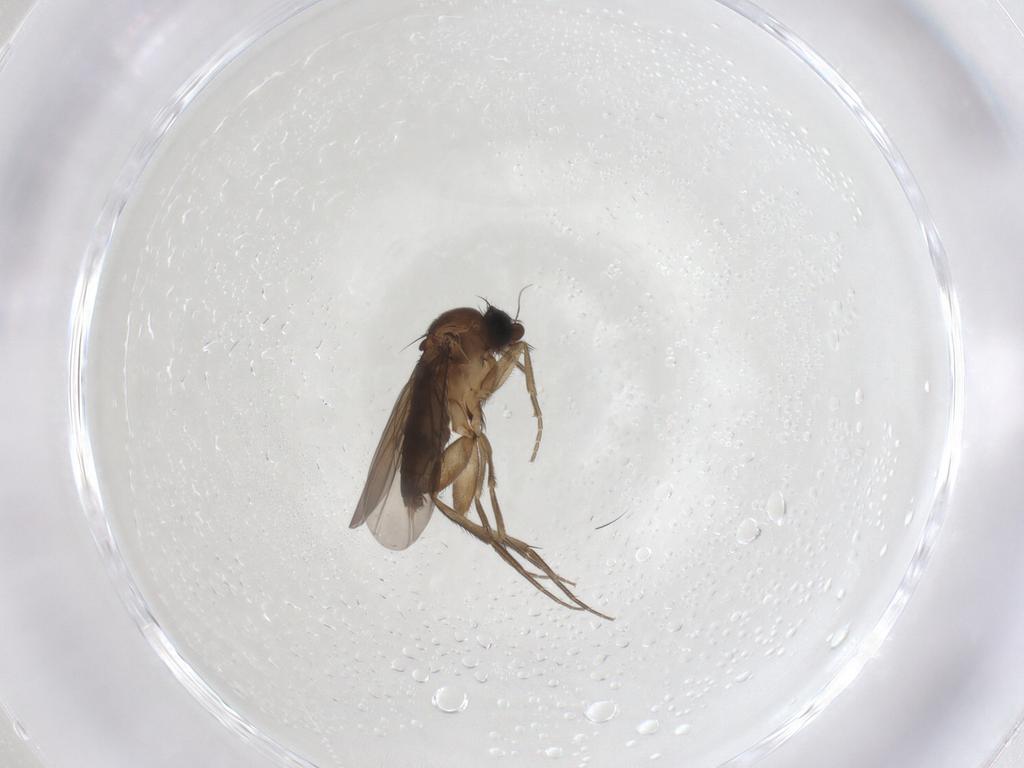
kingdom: Animalia
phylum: Arthropoda
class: Insecta
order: Diptera
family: Phoridae
